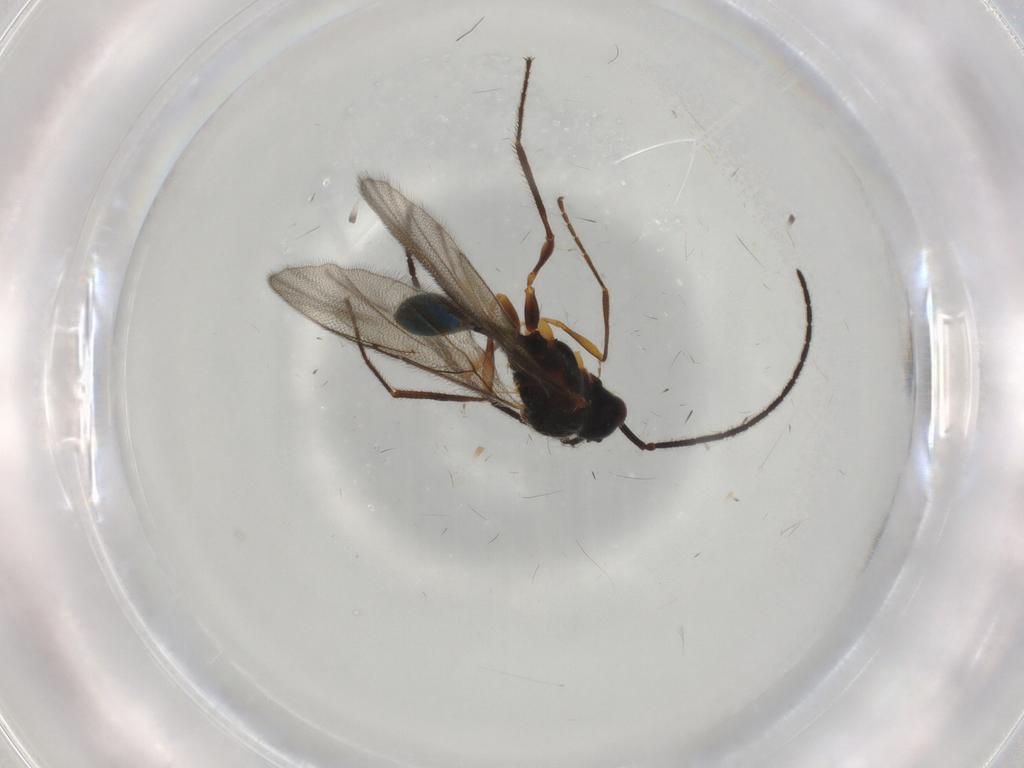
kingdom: Animalia
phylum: Arthropoda
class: Insecta
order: Hymenoptera
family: Diapriidae
